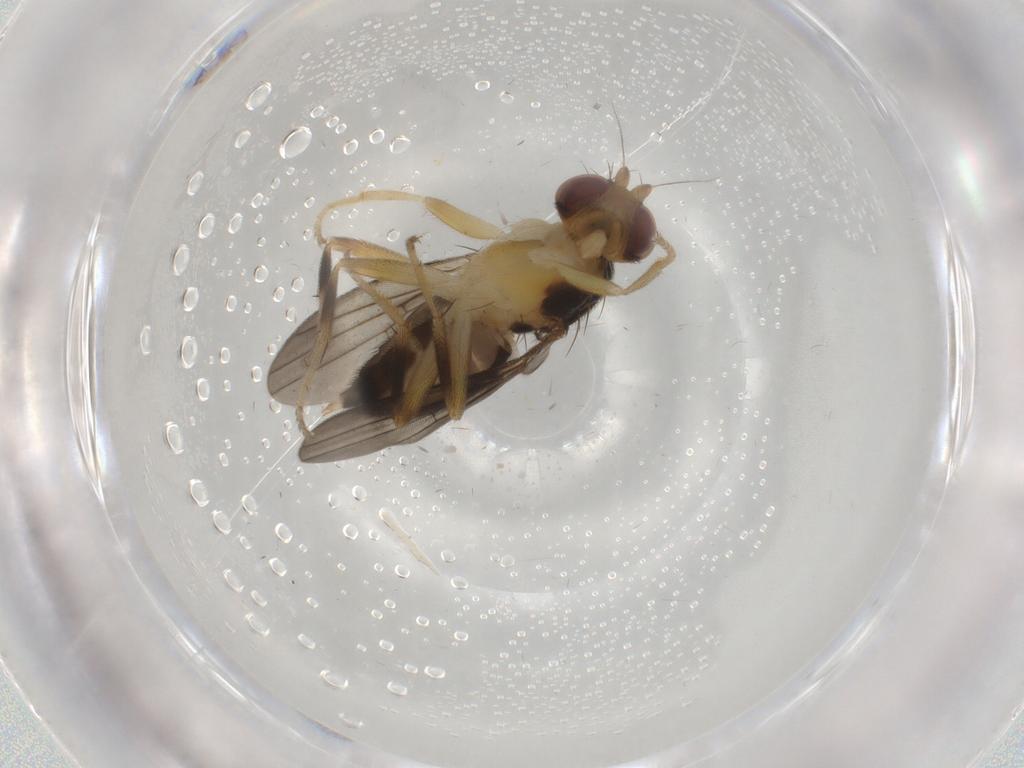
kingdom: Animalia
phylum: Arthropoda
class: Insecta
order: Diptera
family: Clusiidae
